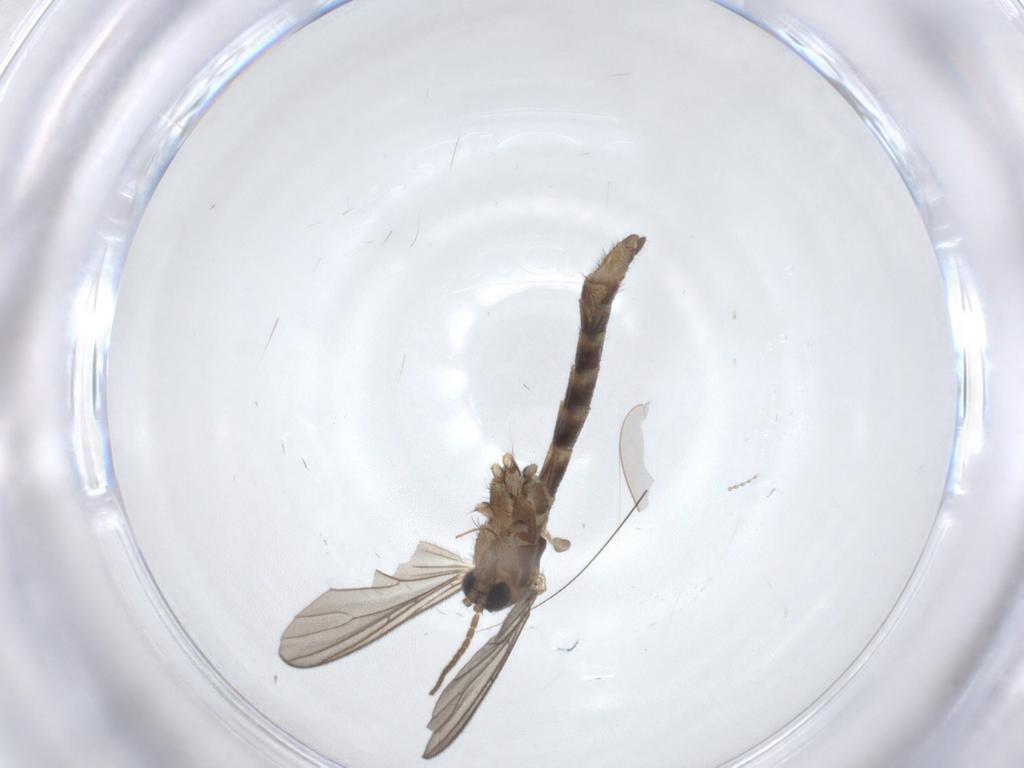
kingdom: Animalia
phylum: Arthropoda
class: Insecta
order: Diptera
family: Cecidomyiidae
